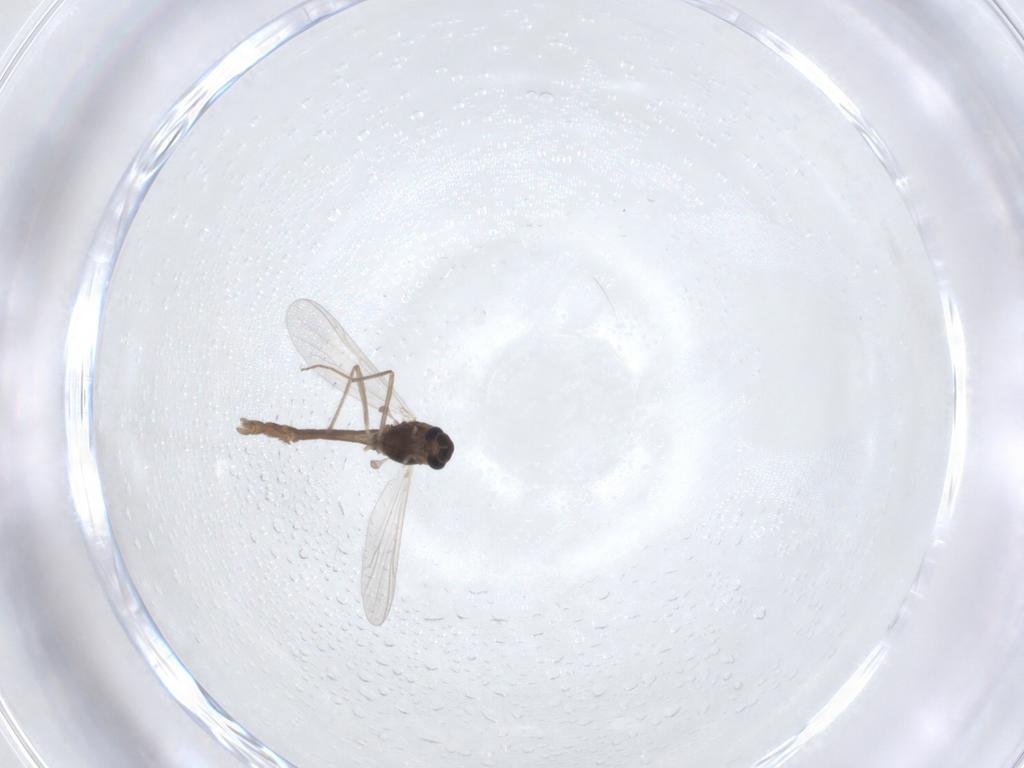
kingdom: Animalia
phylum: Arthropoda
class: Insecta
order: Diptera
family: Chironomidae
